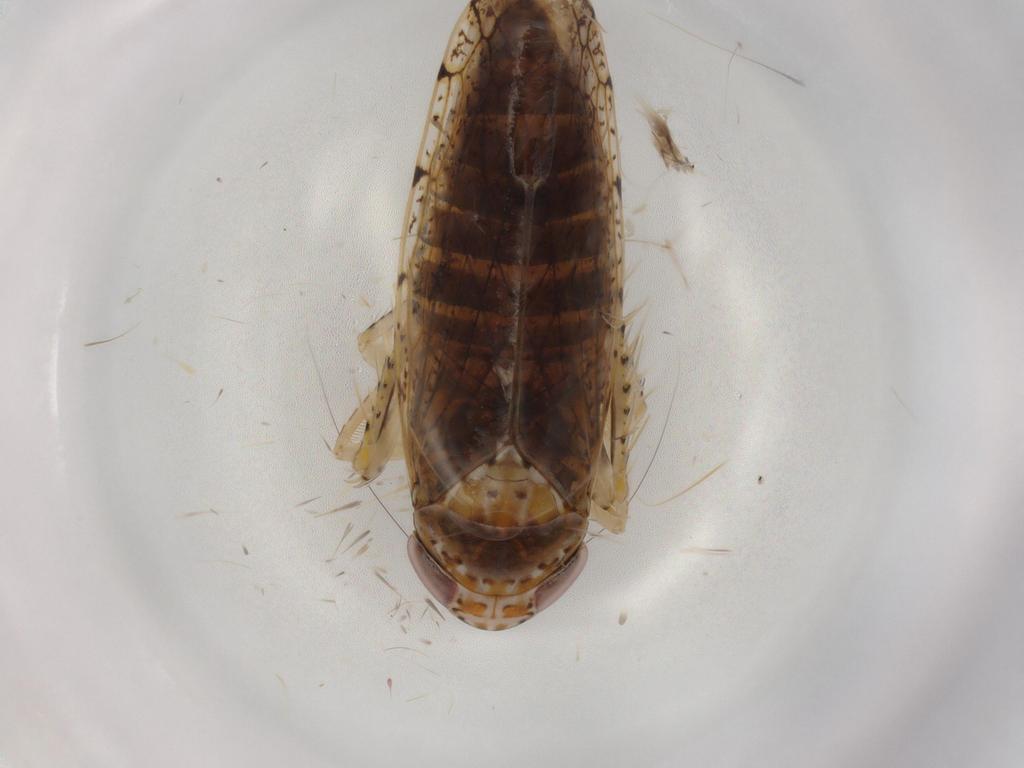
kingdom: Animalia
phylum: Arthropoda
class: Insecta
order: Hemiptera
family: Cicadellidae
